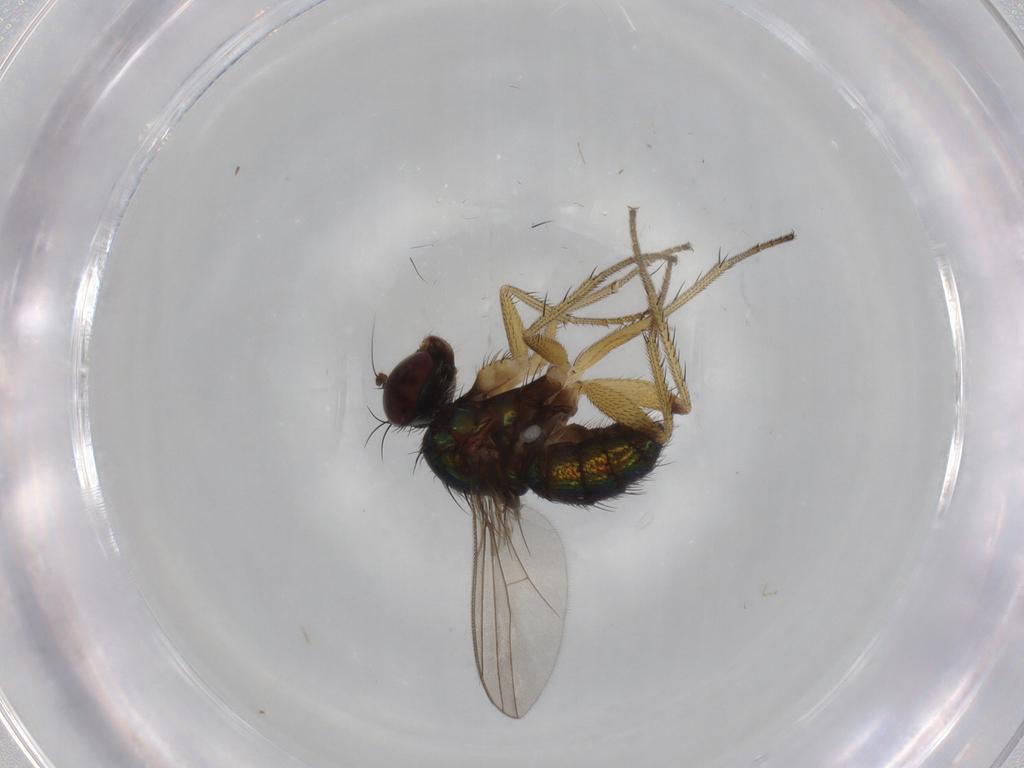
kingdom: Animalia
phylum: Arthropoda
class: Insecta
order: Diptera
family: Dolichopodidae
